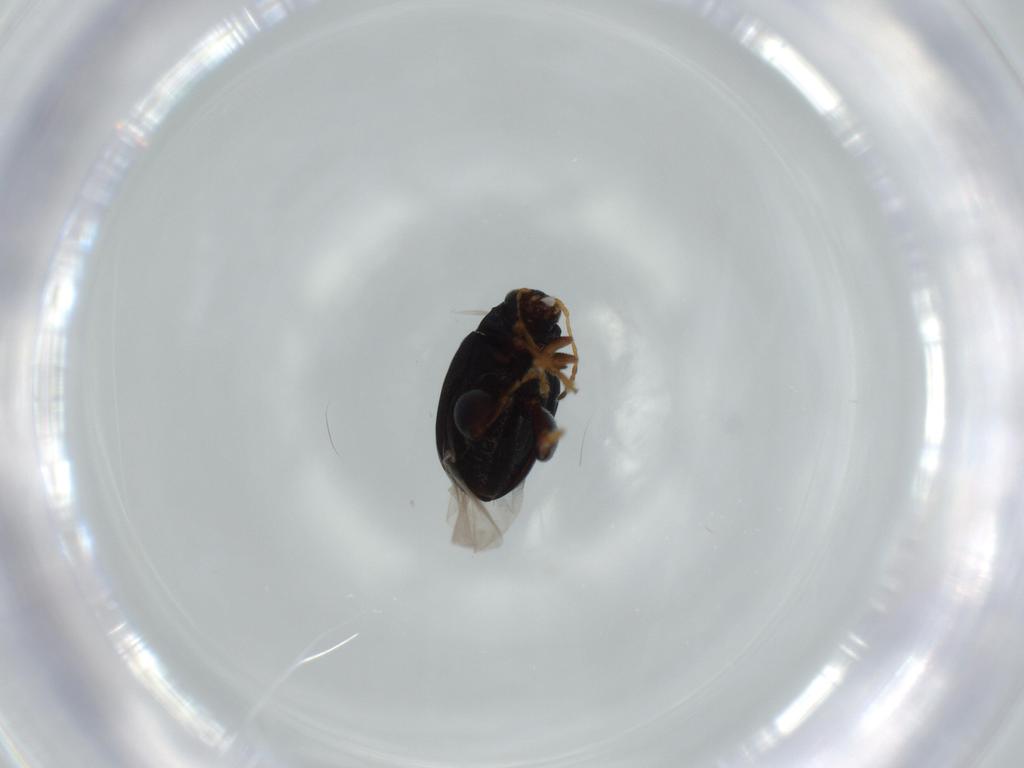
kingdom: Animalia
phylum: Arthropoda
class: Insecta
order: Coleoptera
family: Chrysomelidae
